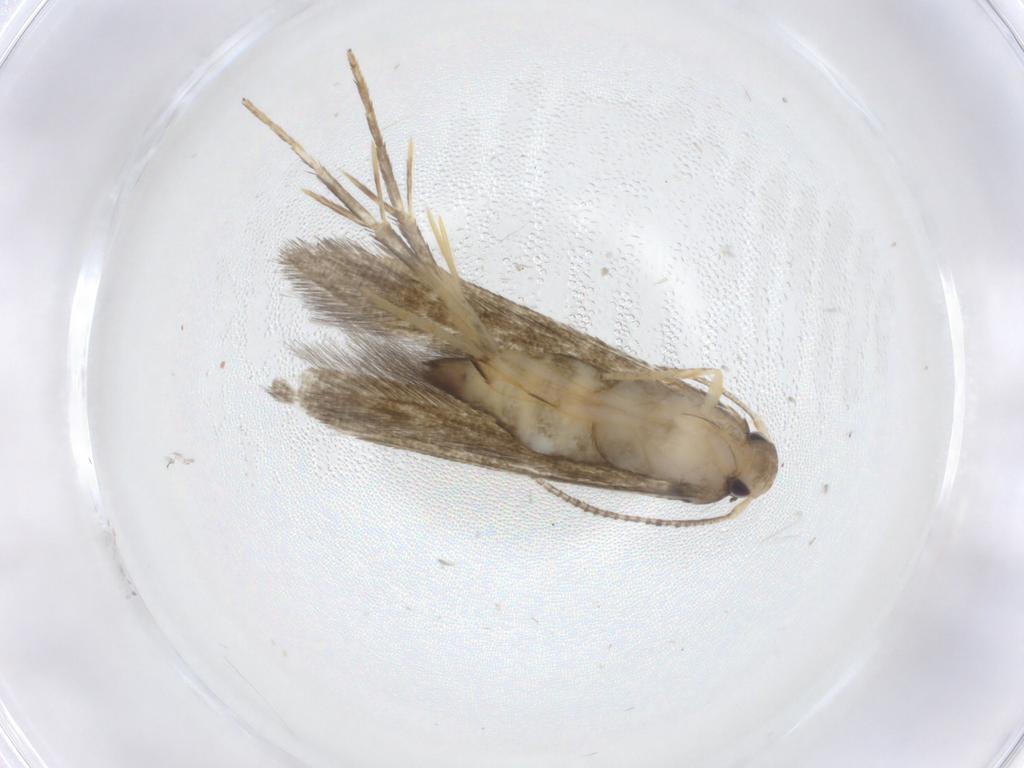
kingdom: Animalia
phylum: Arthropoda
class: Insecta
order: Lepidoptera
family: Stathmopodidae
